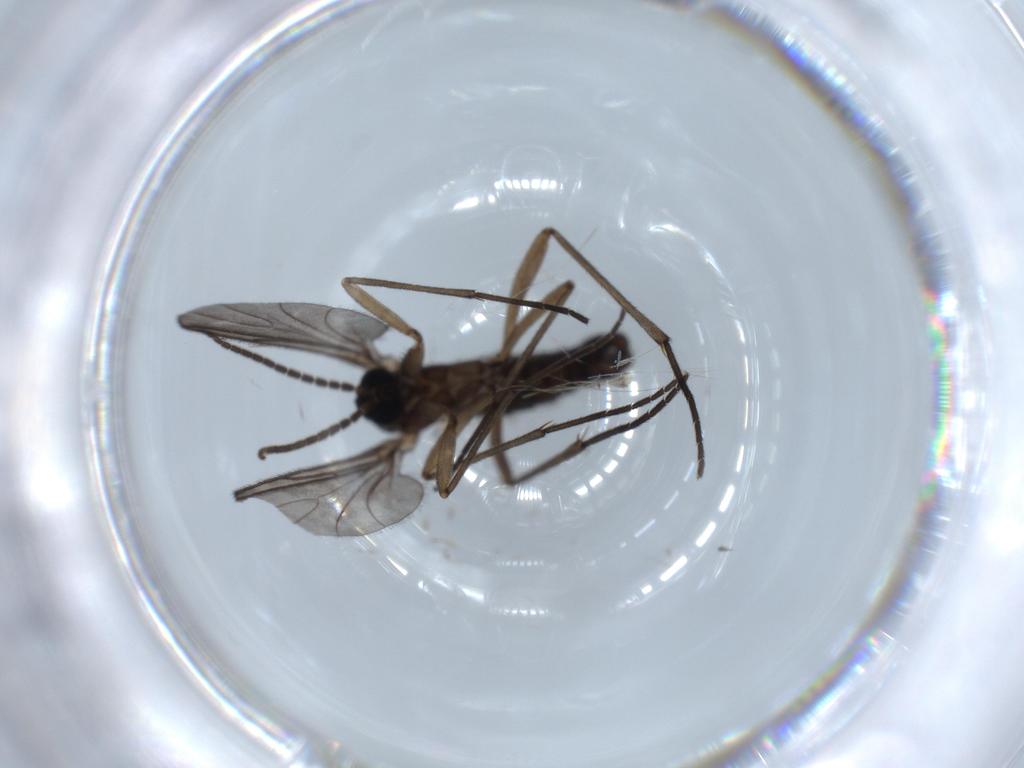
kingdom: Animalia
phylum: Arthropoda
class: Insecta
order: Diptera
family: Sciaridae
